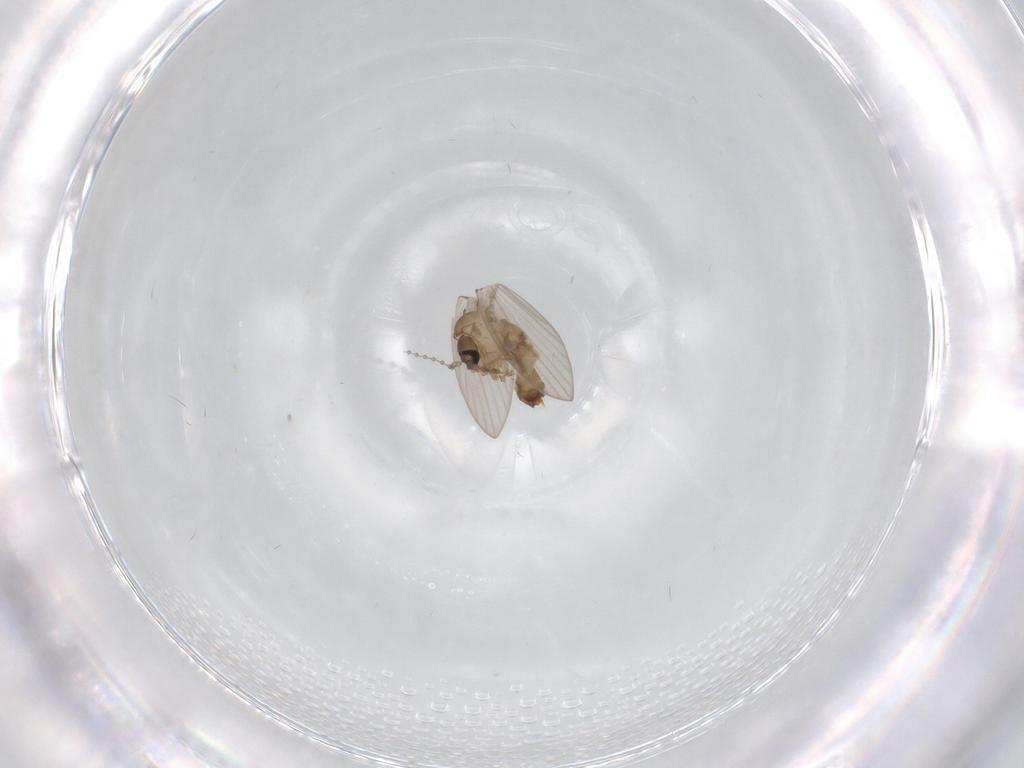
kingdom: Animalia
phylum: Arthropoda
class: Insecta
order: Diptera
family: Psychodidae
